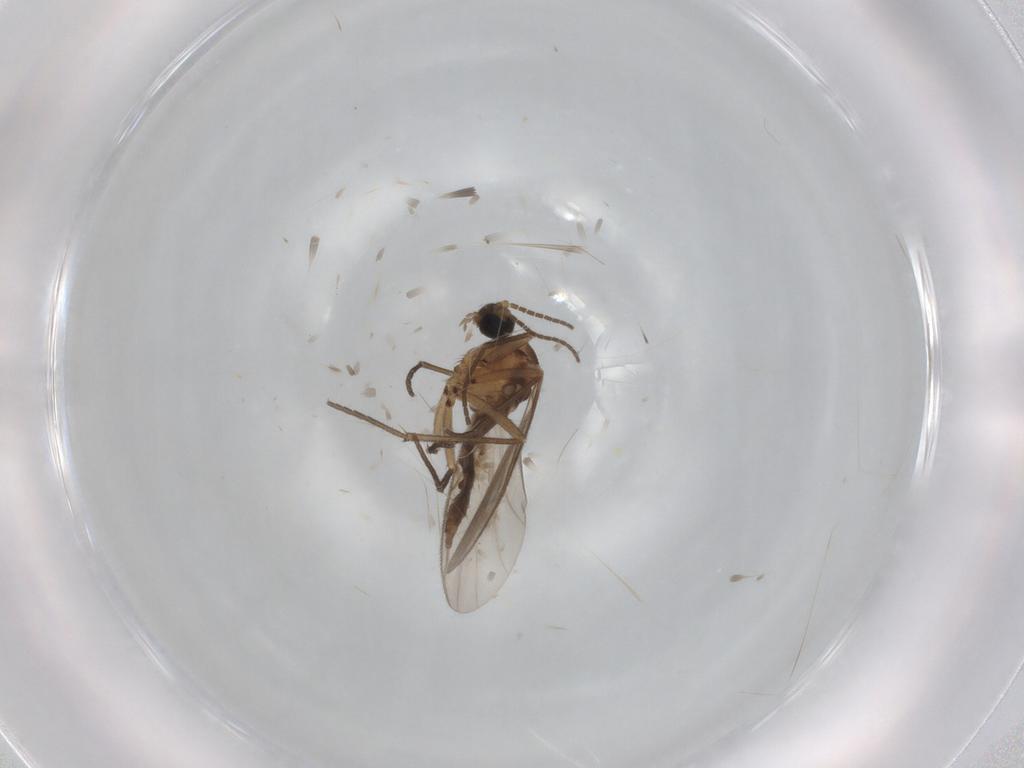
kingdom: Animalia
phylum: Arthropoda
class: Insecta
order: Diptera
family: Sciaridae
